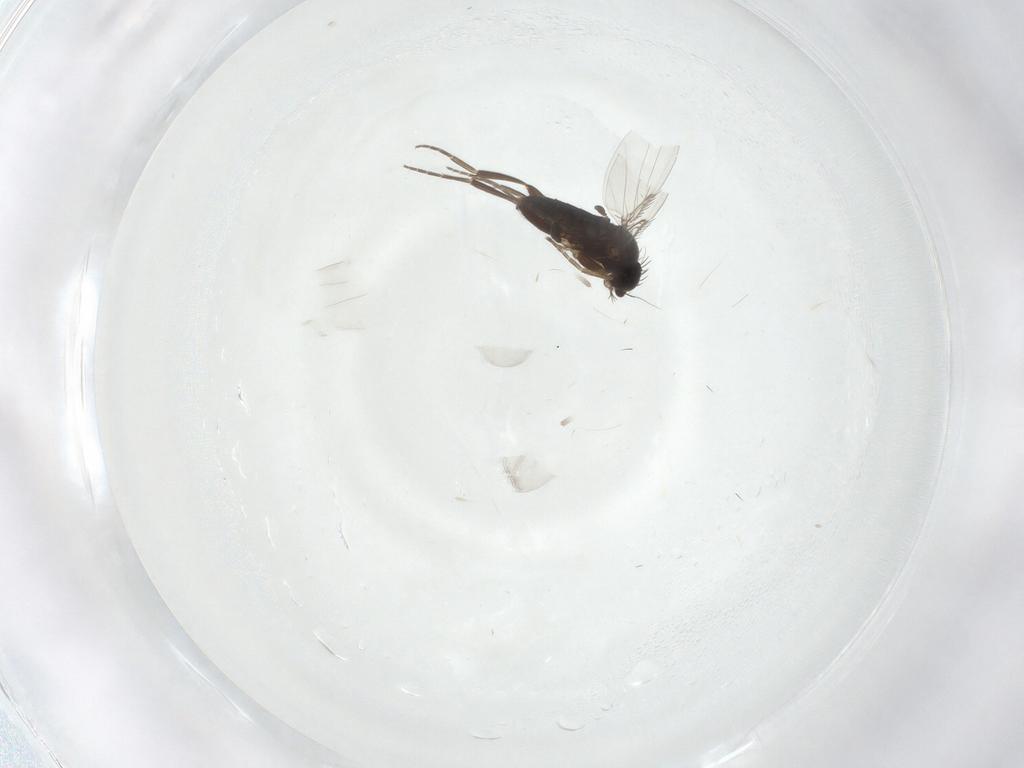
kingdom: Animalia
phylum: Arthropoda
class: Insecta
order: Diptera
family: Phoridae
